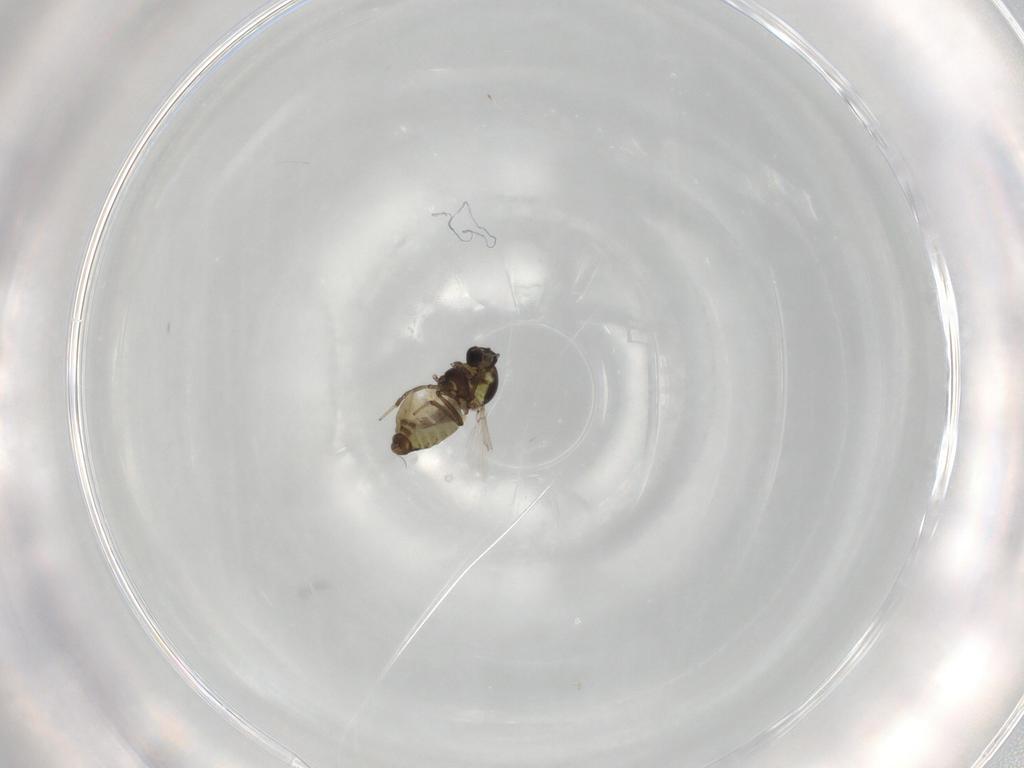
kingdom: Animalia
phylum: Arthropoda
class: Insecta
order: Diptera
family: Ceratopogonidae
